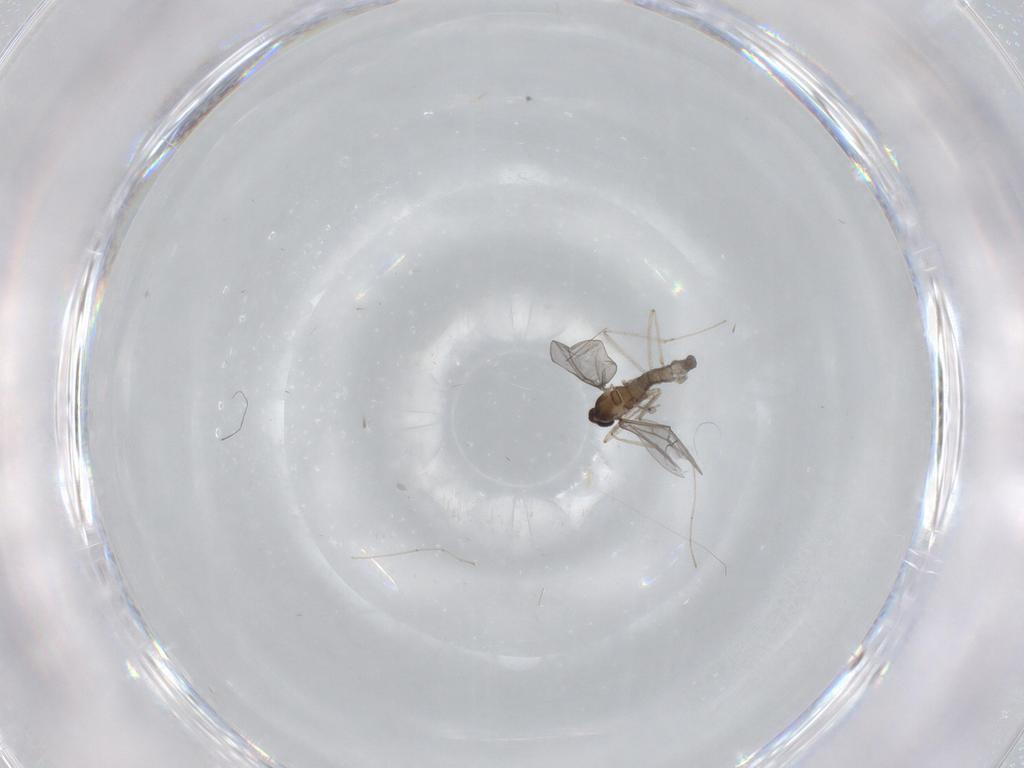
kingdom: Animalia
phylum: Arthropoda
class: Insecta
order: Diptera
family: Cecidomyiidae
